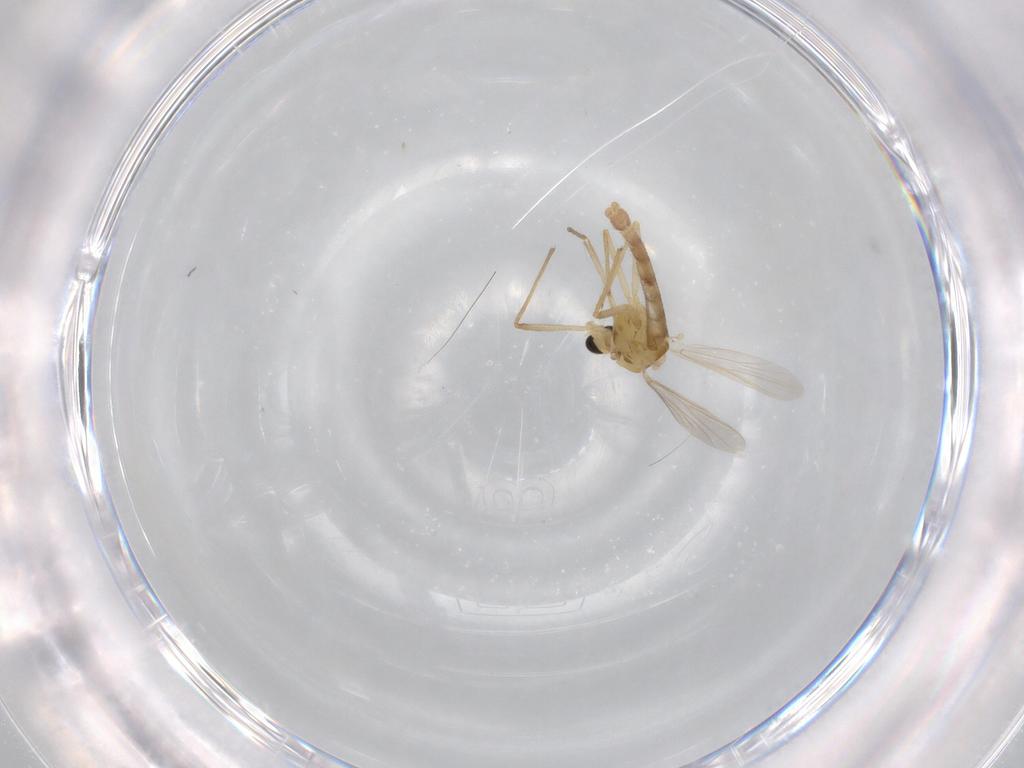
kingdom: Animalia
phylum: Arthropoda
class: Insecta
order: Diptera
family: Chironomidae
